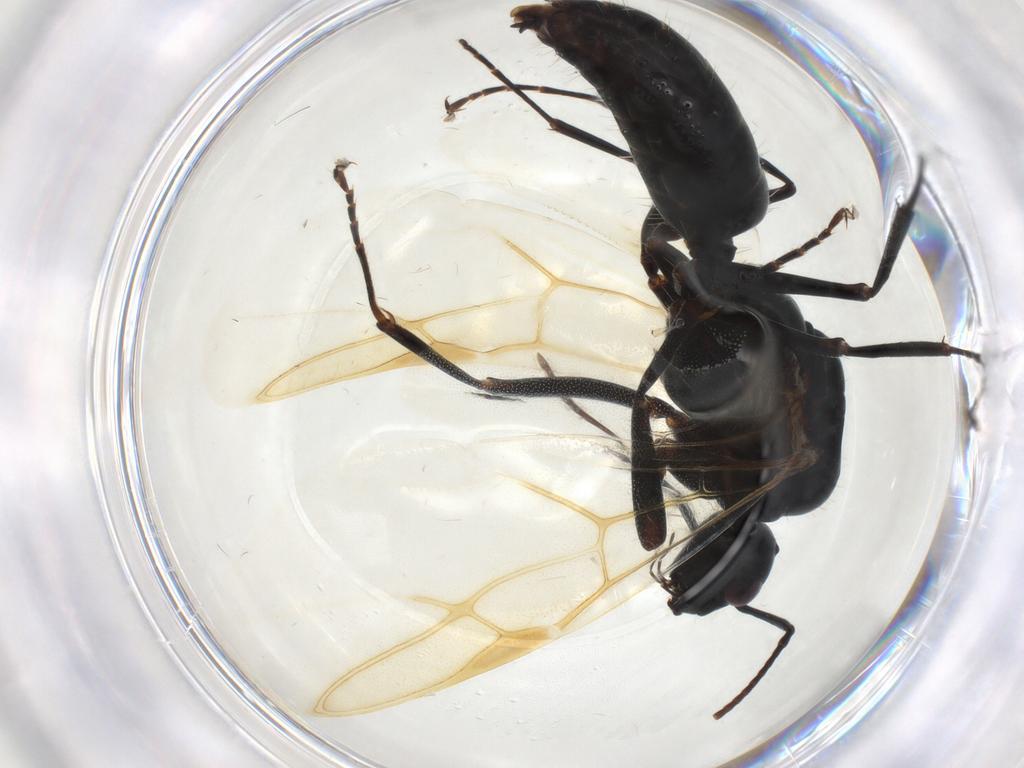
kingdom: Animalia
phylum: Arthropoda
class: Insecta
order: Hymenoptera
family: Formicidae
